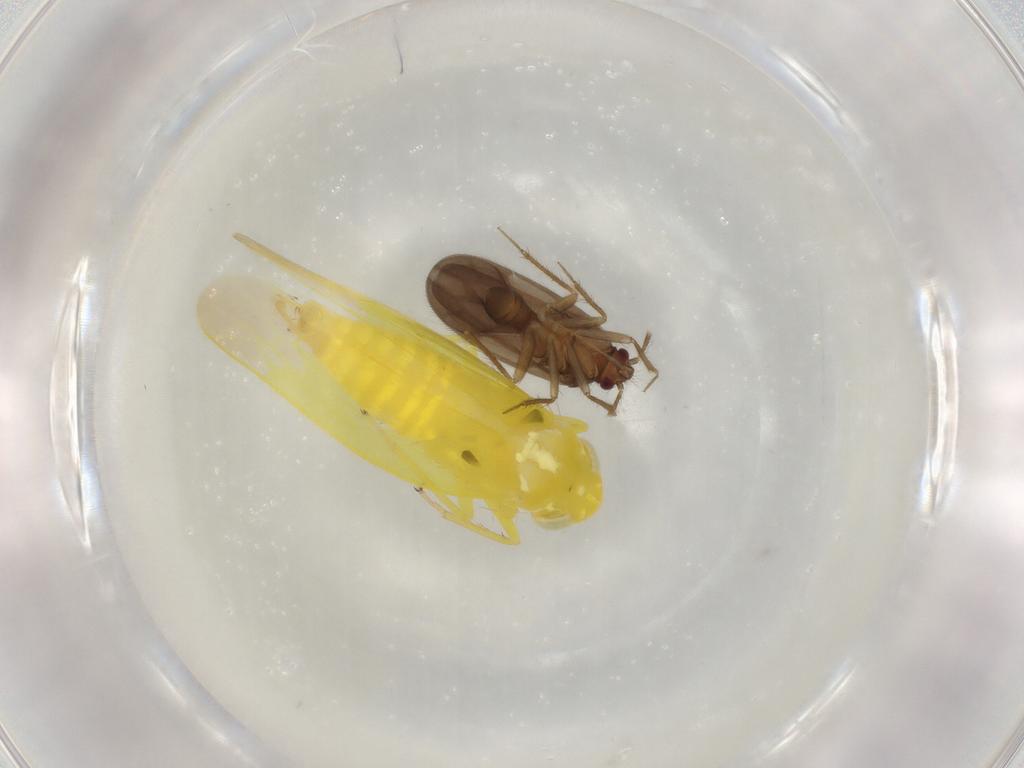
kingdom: Animalia
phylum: Arthropoda
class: Insecta
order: Hemiptera
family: Cicadellidae
